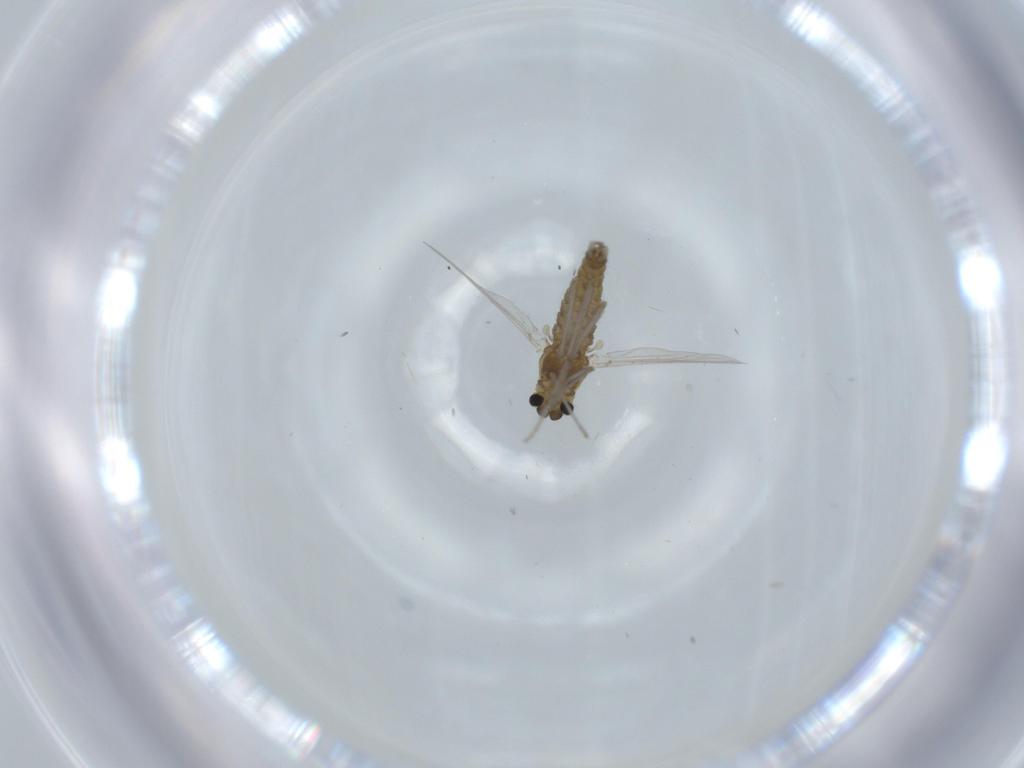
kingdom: Animalia
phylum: Arthropoda
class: Insecta
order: Diptera
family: Chironomidae
